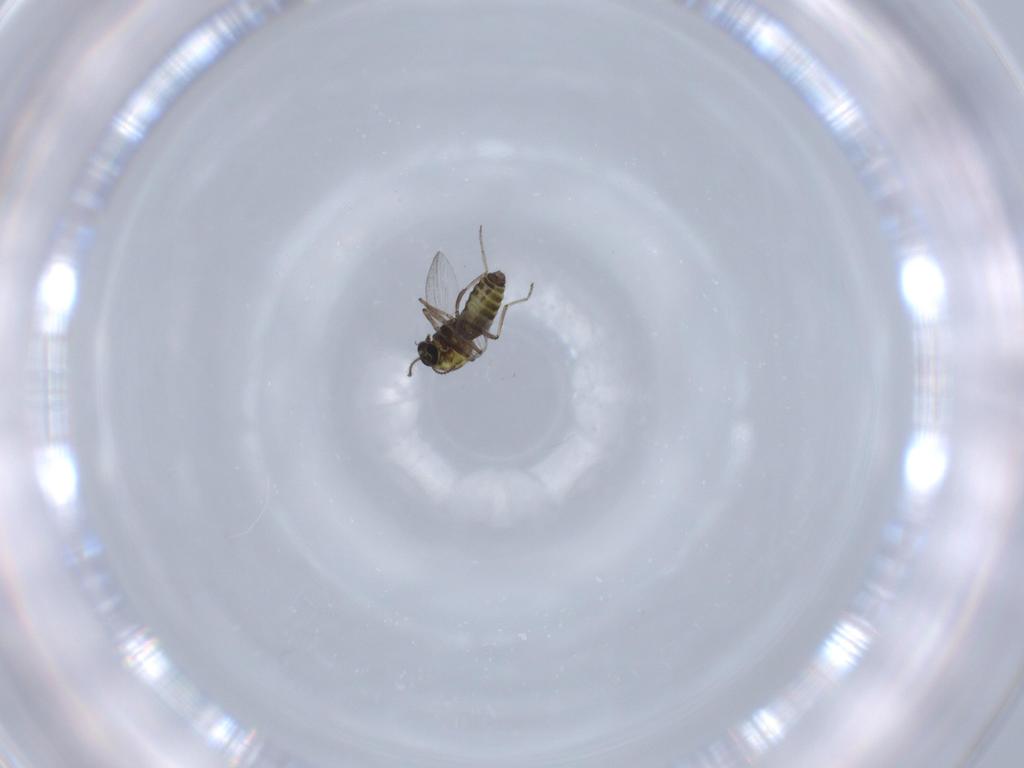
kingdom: Animalia
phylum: Arthropoda
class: Insecta
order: Diptera
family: Ceratopogonidae
